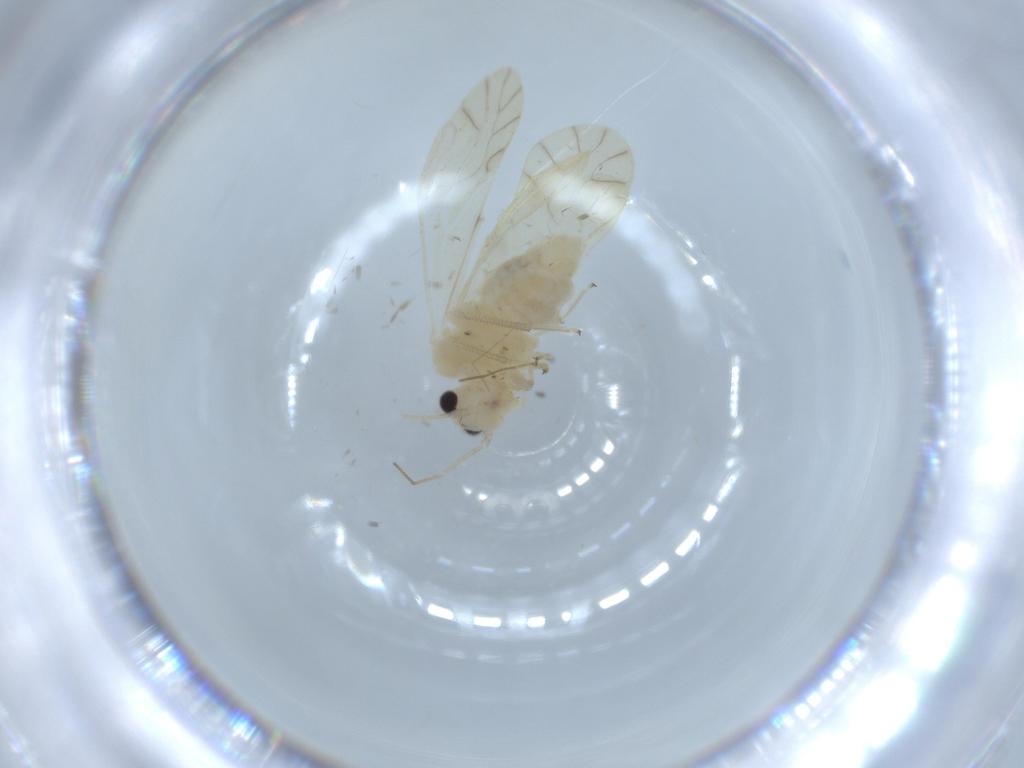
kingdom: Animalia
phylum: Arthropoda
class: Insecta
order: Psocodea
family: Caeciliusidae
